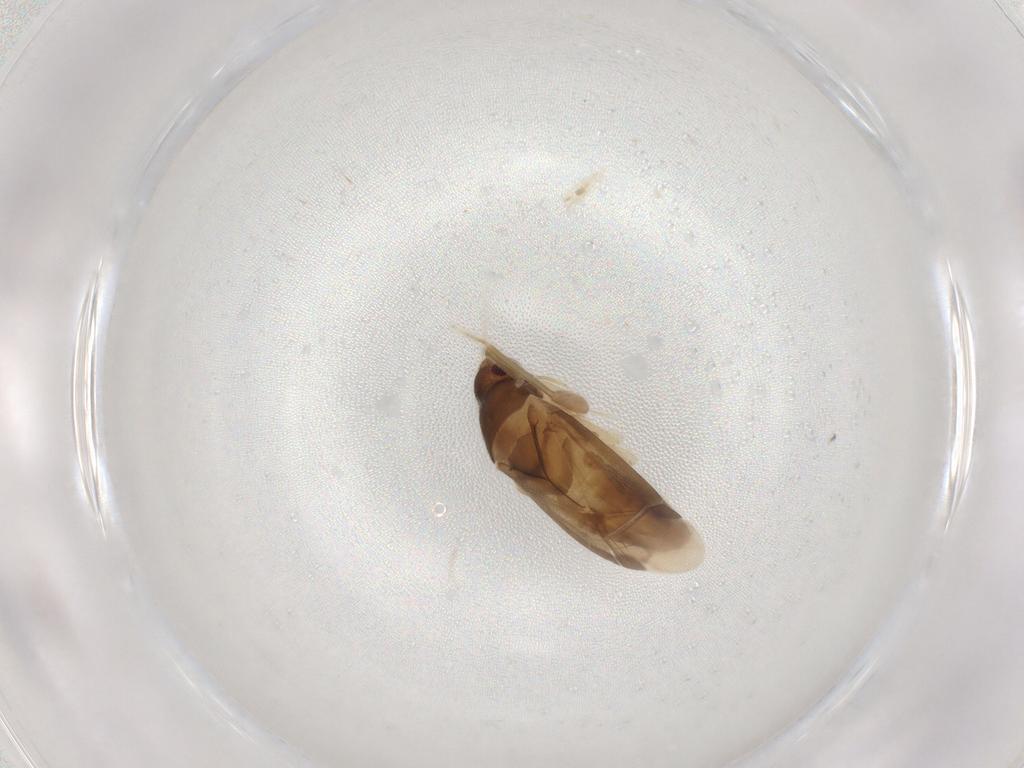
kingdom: Animalia
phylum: Arthropoda
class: Insecta
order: Hemiptera
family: Miridae
